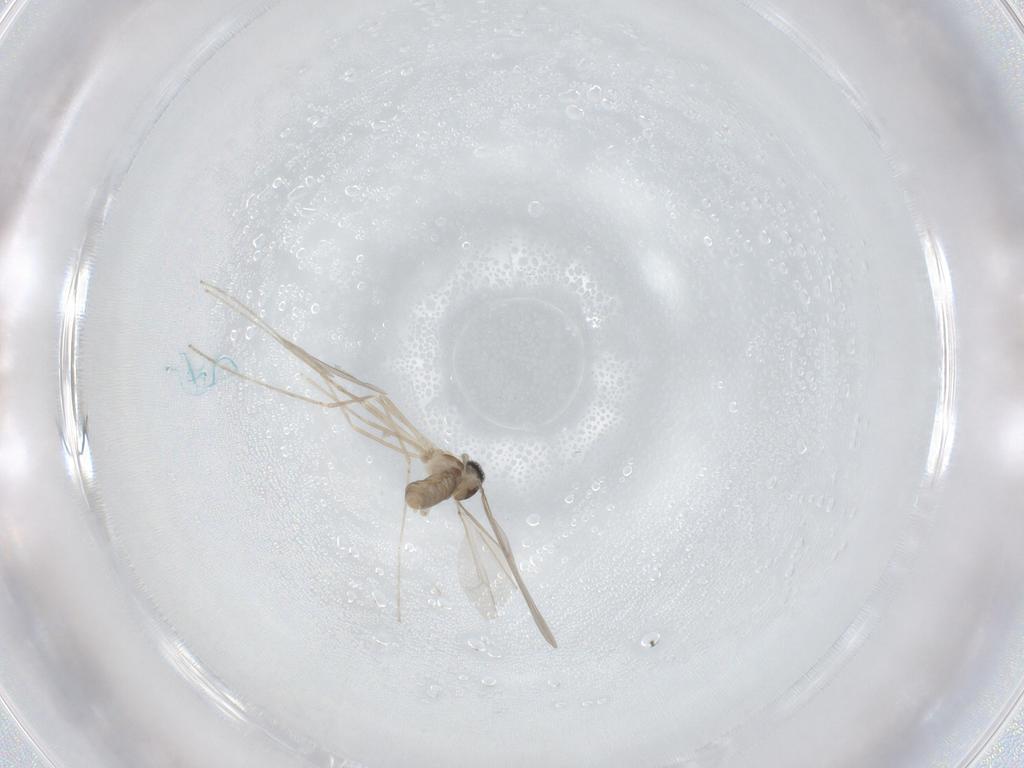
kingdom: Animalia
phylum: Arthropoda
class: Insecta
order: Diptera
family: Cecidomyiidae
